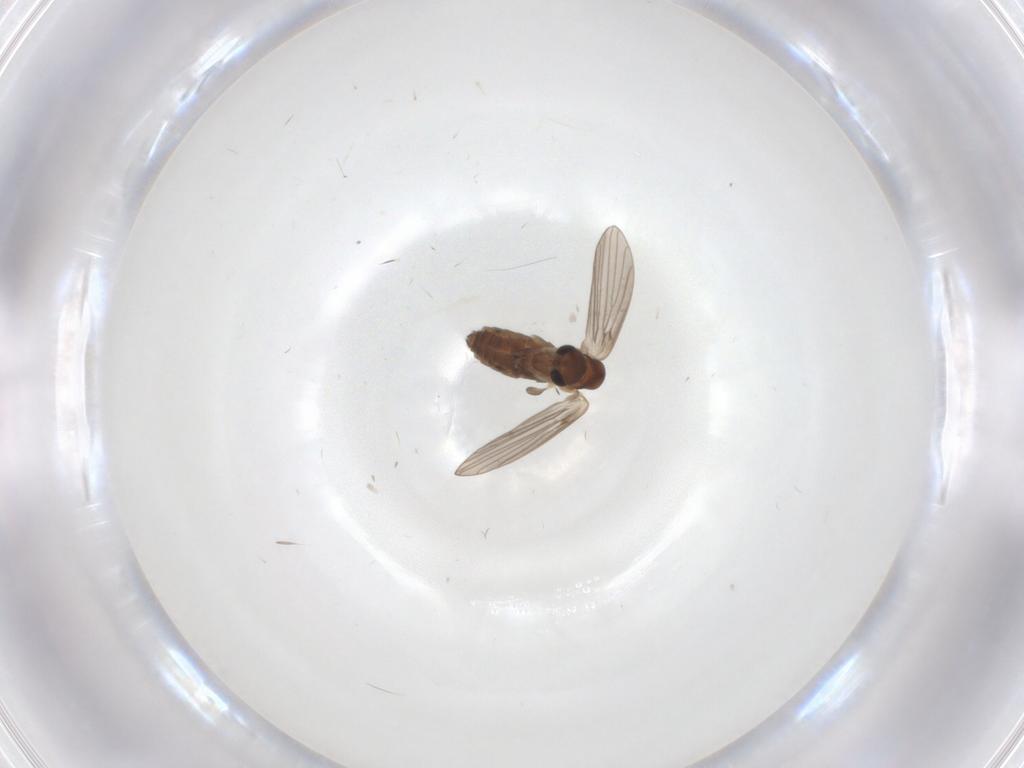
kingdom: Animalia
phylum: Arthropoda
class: Insecta
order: Diptera
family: Psychodidae
